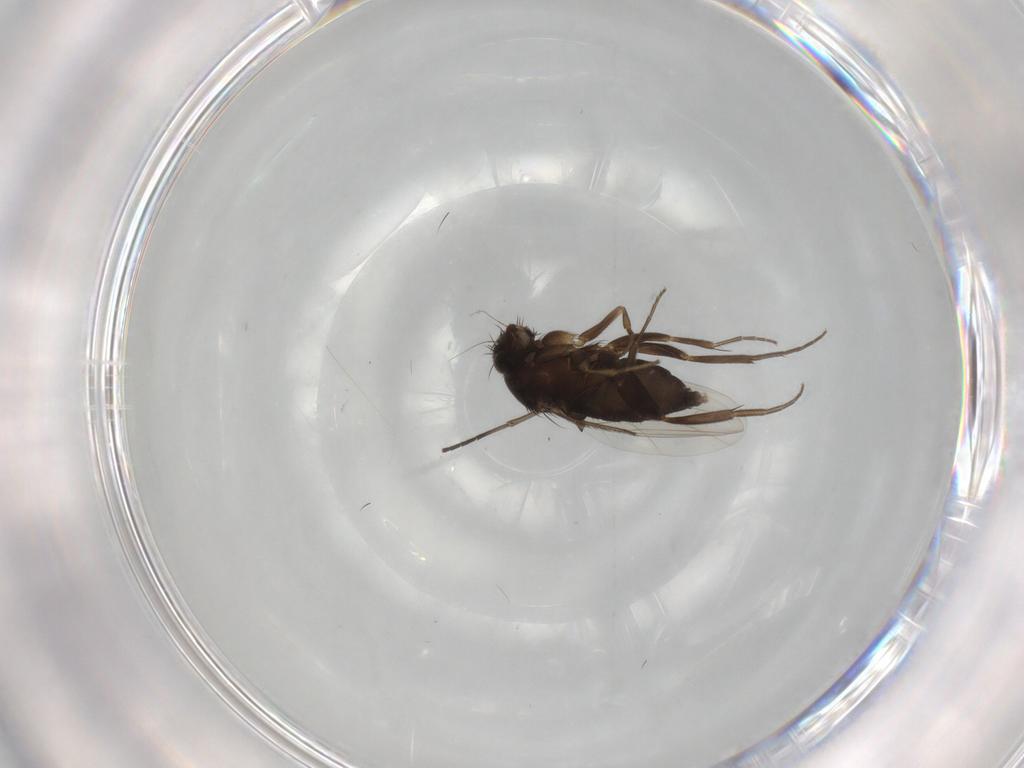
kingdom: Animalia
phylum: Arthropoda
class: Insecta
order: Diptera
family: Phoridae
